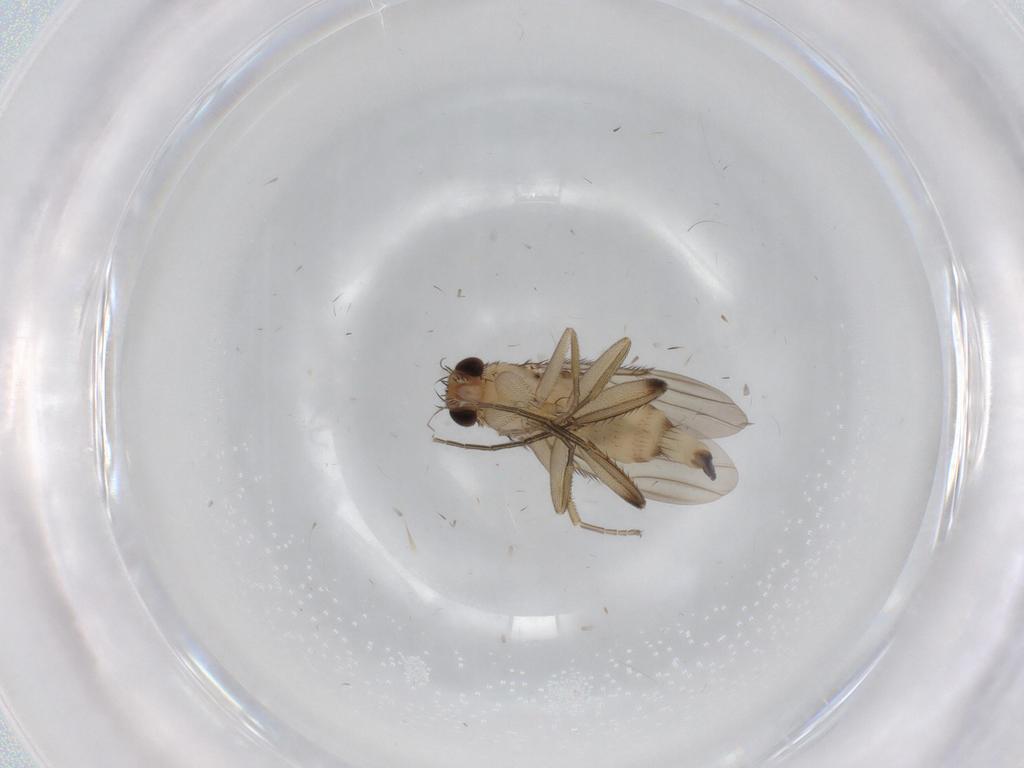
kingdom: Animalia
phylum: Arthropoda
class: Insecta
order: Diptera
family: Phoridae
